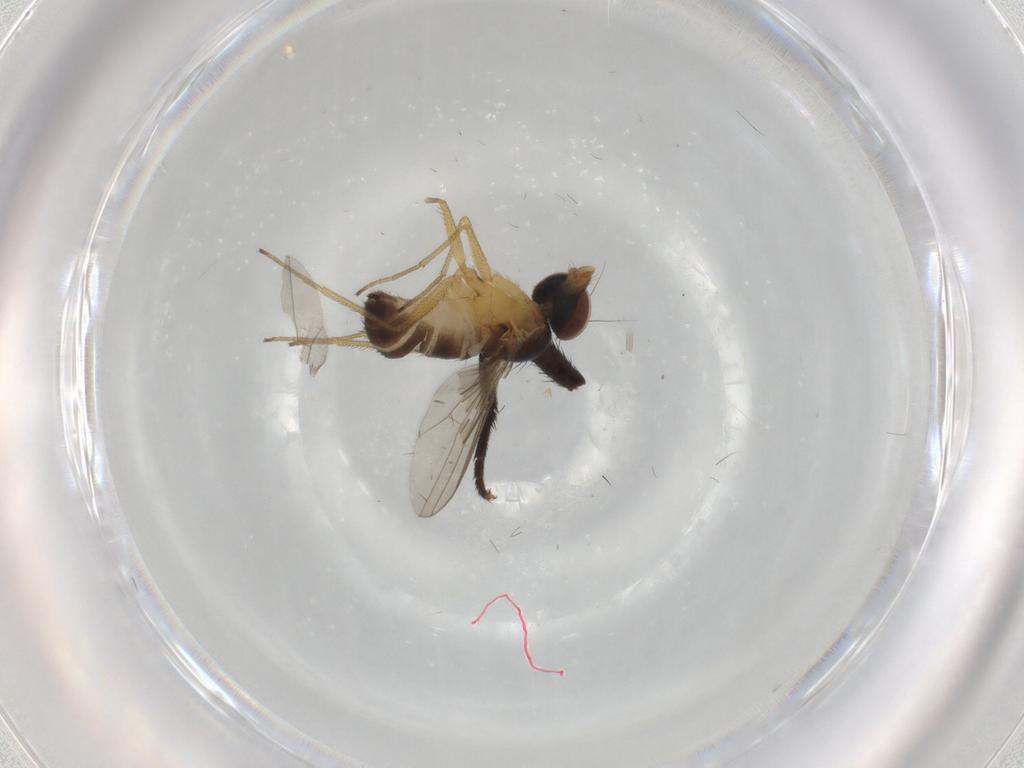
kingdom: Animalia
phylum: Arthropoda
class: Insecta
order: Diptera
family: Dolichopodidae
